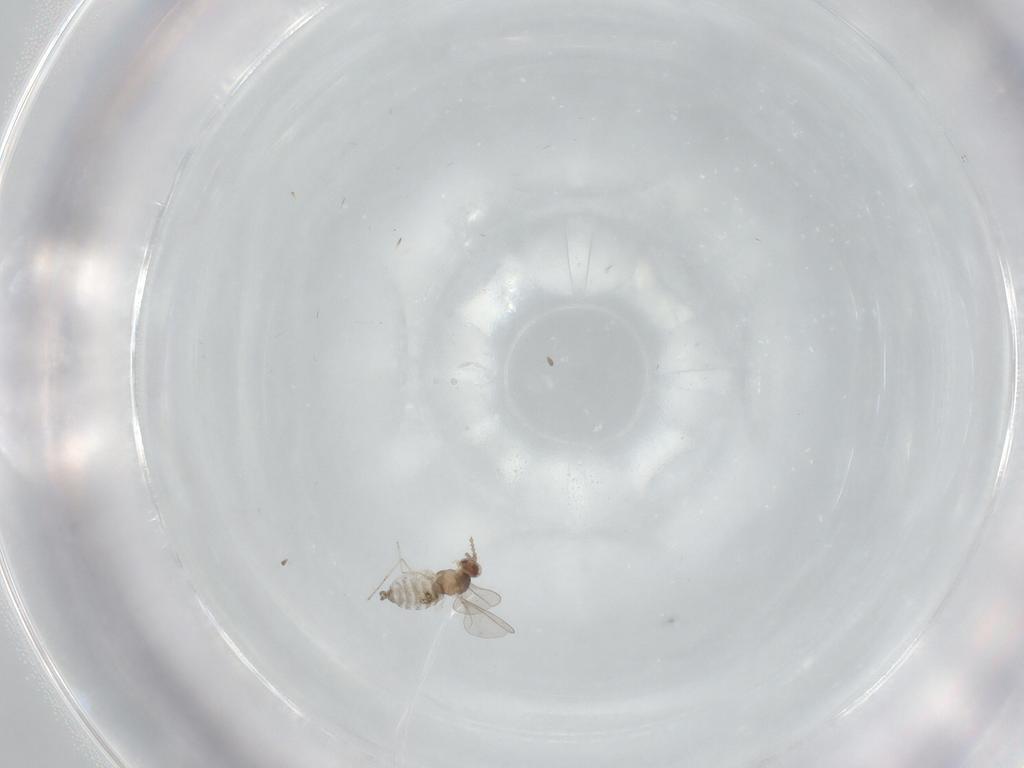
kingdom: Animalia
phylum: Arthropoda
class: Insecta
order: Diptera
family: Cecidomyiidae
